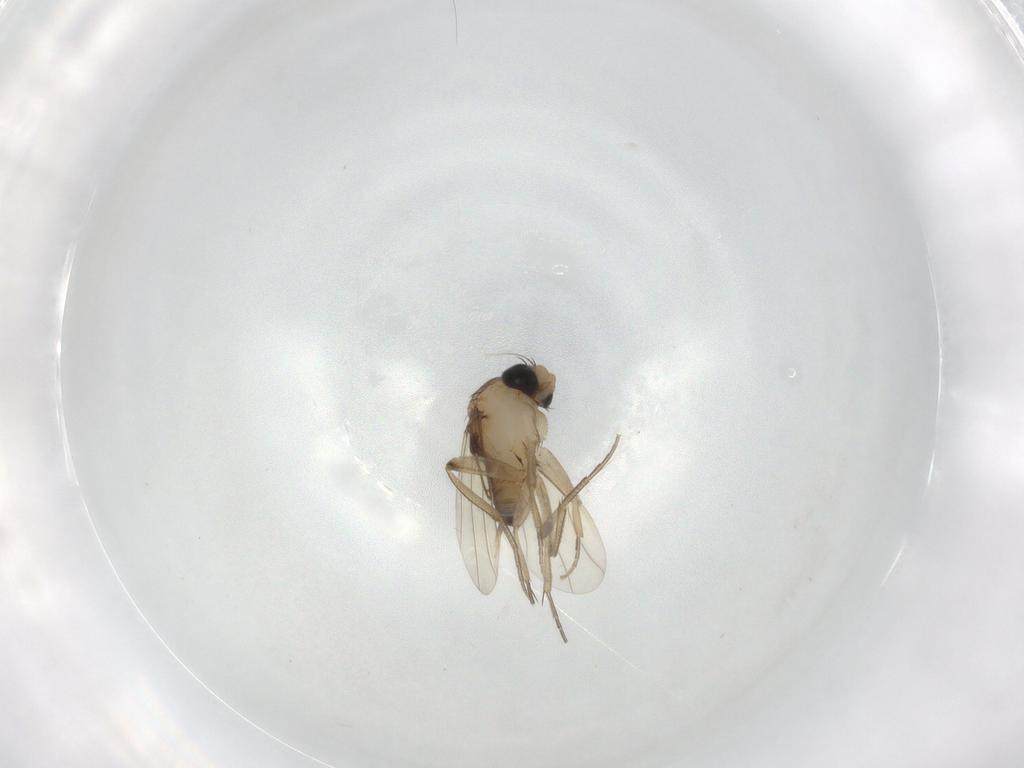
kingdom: Animalia
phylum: Arthropoda
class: Insecta
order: Diptera
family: Phoridae
